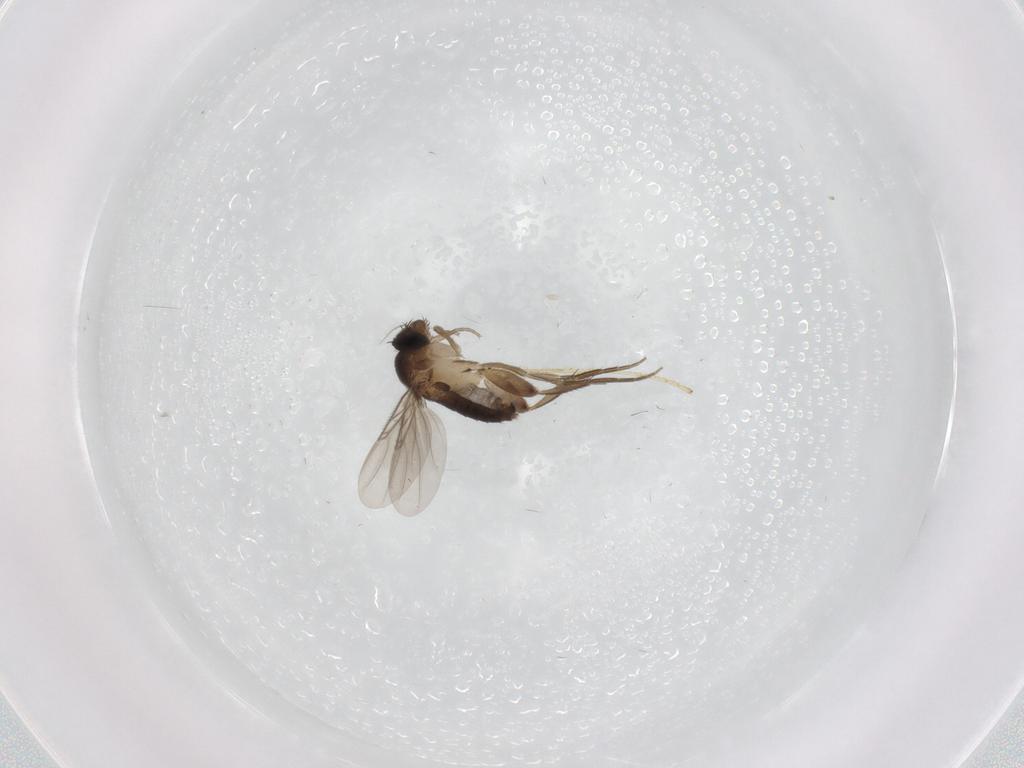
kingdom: Animalia
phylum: Arthropoda
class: Insecta
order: Diptera
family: Phoridae
